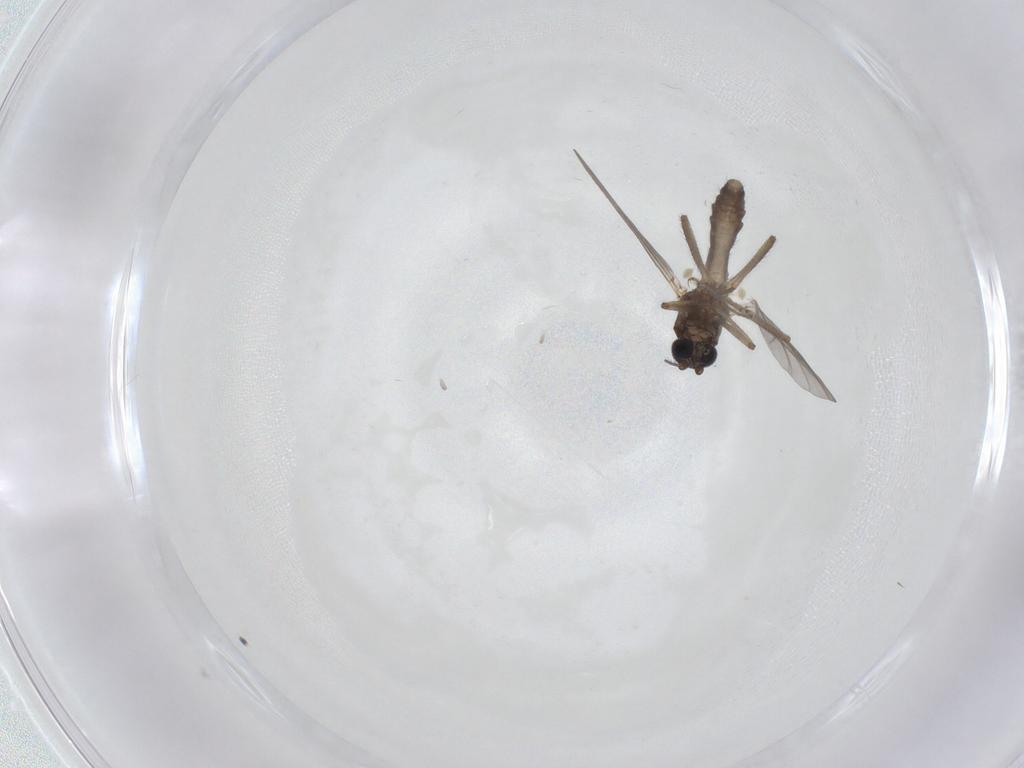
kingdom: Animalia
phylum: Arthropoda
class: Insecta
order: Diptera
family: Ceratopogonidae
